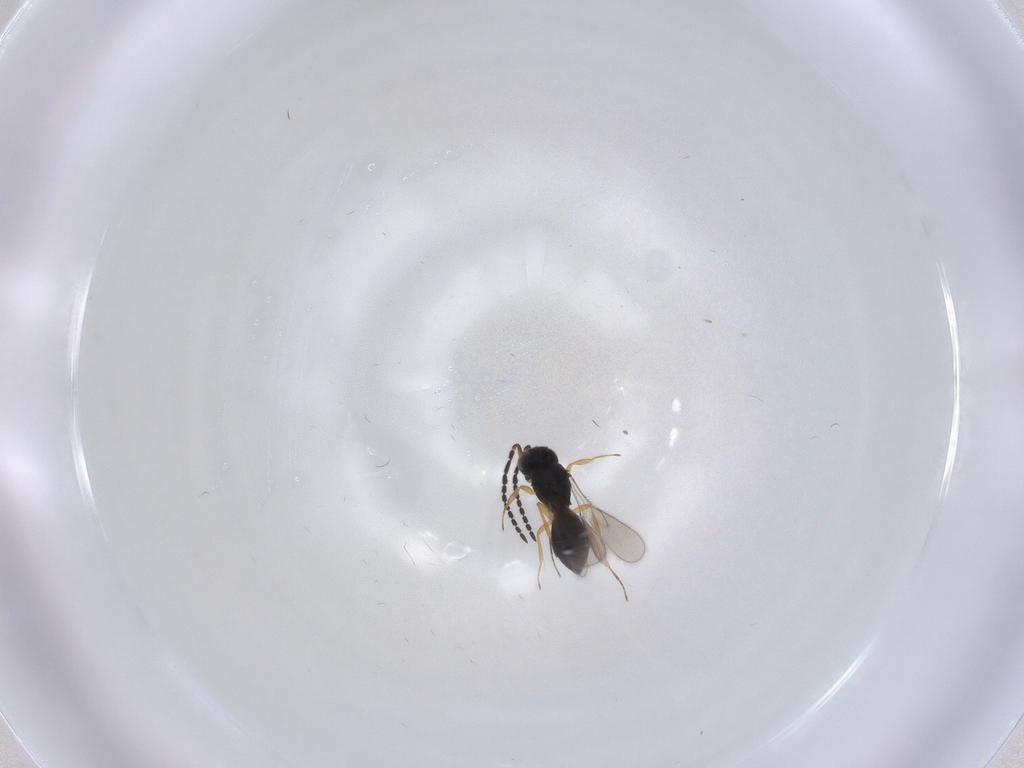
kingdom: Animalia
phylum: Arthropoda
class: Insecta
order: Hymenoptera
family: Scelionidae
